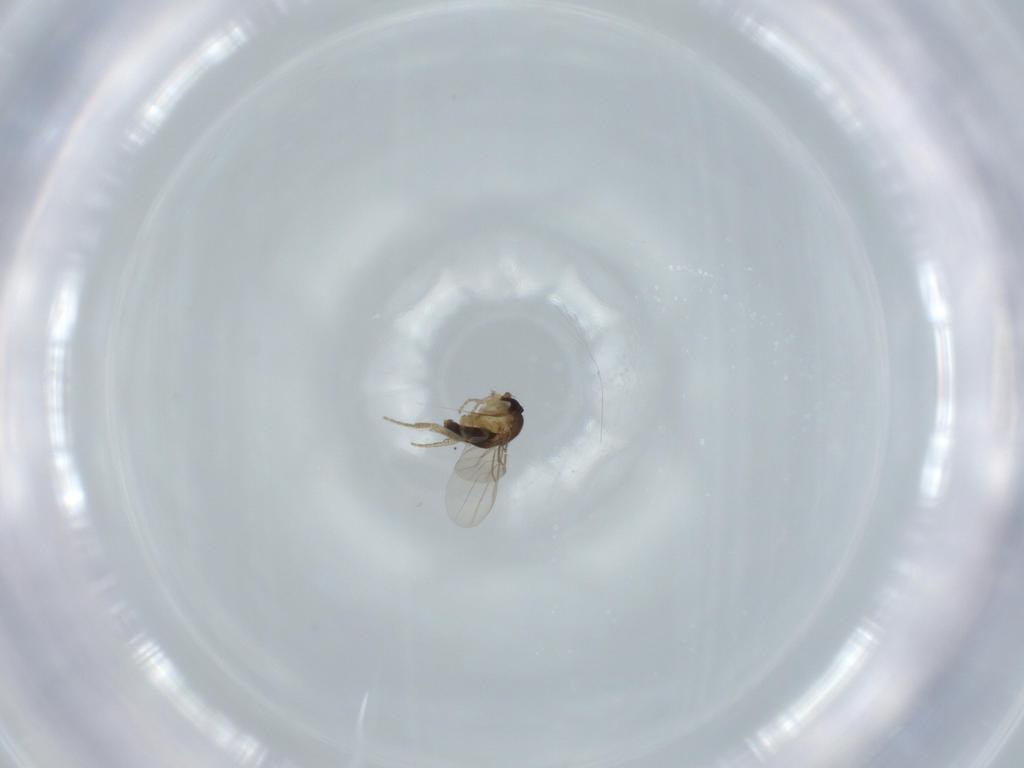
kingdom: Animalia
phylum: Arthropoda
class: Insecta
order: Diptera
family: Phoridae
